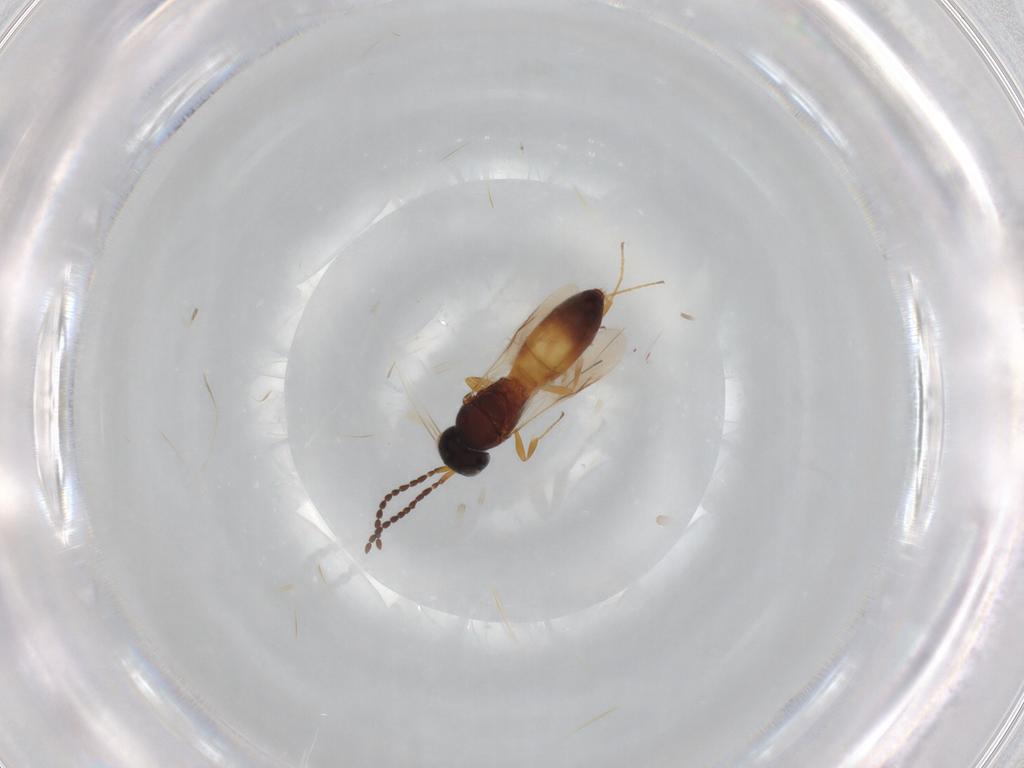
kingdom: Animalia
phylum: Arthropoda
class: Insecta
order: Hymenoptera
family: Scelionidae
